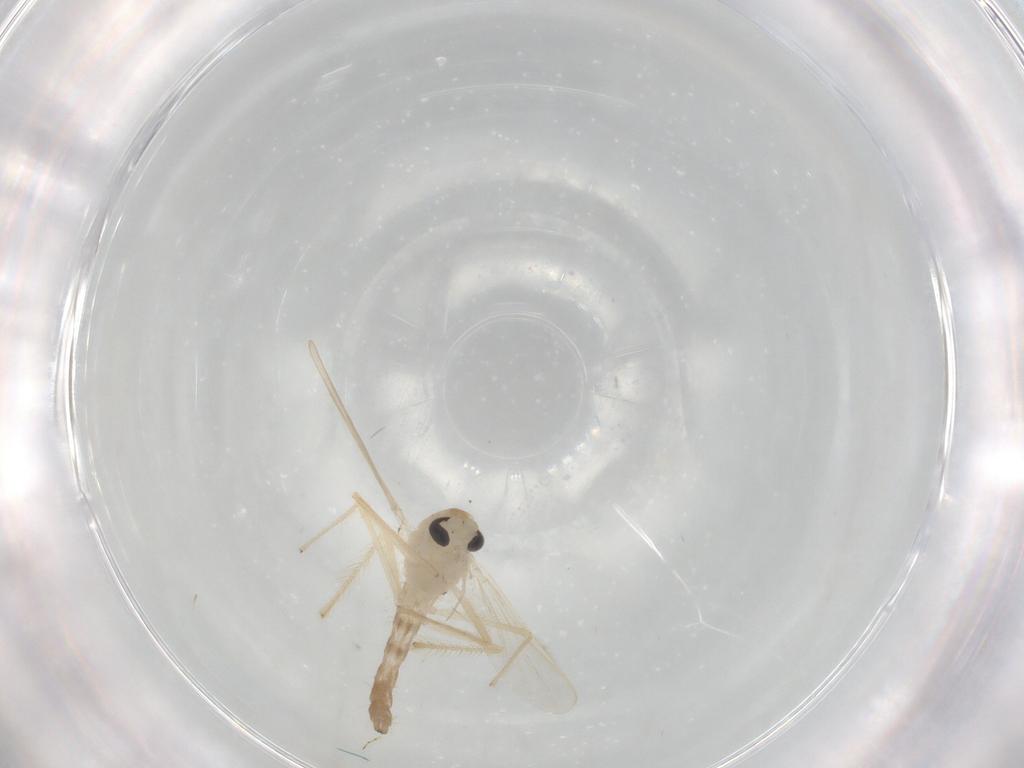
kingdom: Animalia
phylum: Arthropoda
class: Insecta
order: Diptera
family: Chironomidae
